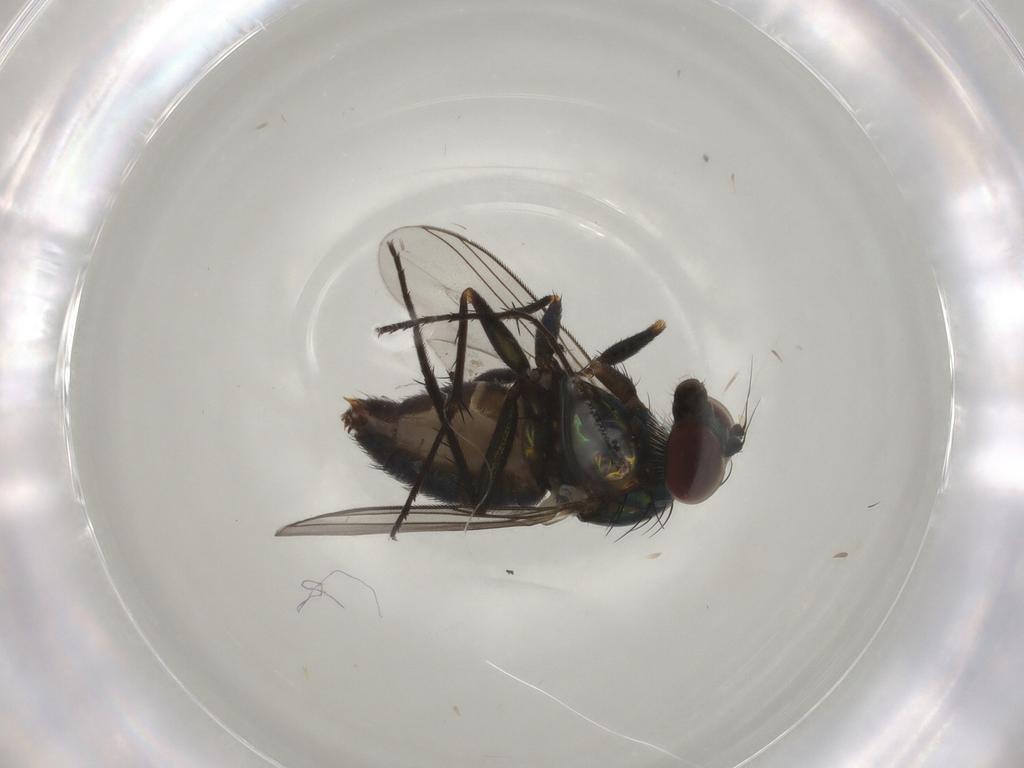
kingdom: Animalia
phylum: Arthropoda
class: Insecta
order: Diptera
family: Dolichopodidae
